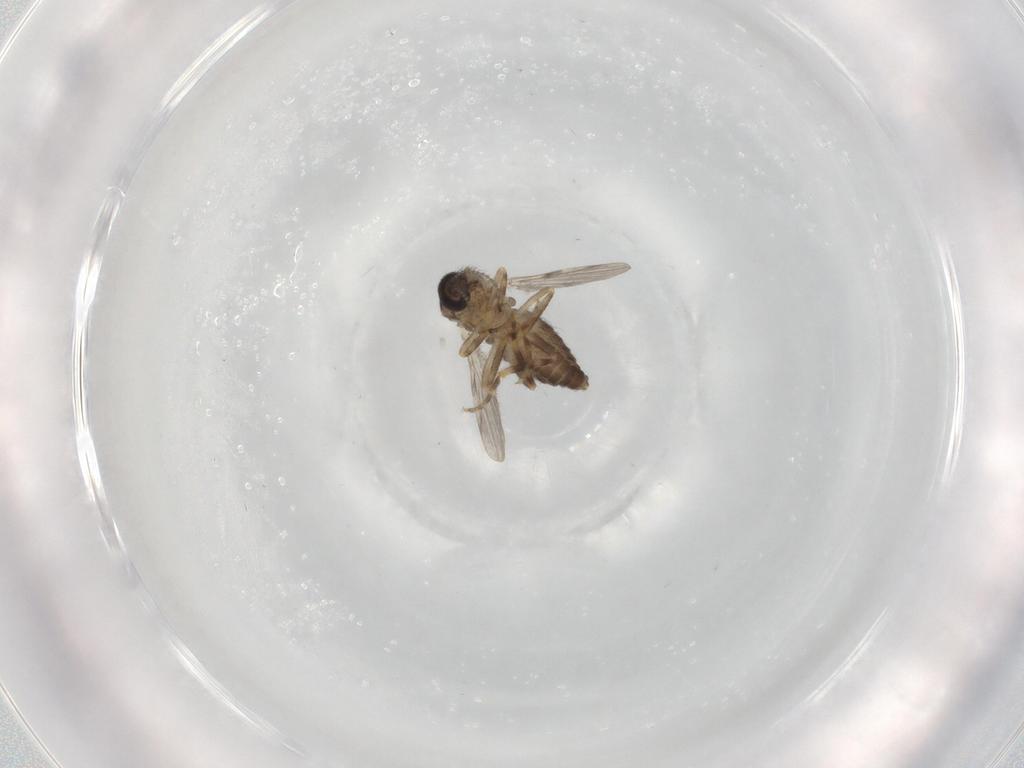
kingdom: Animalia
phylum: Arthropoda
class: Insecta
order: Diptera
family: Ceratopogonidae
